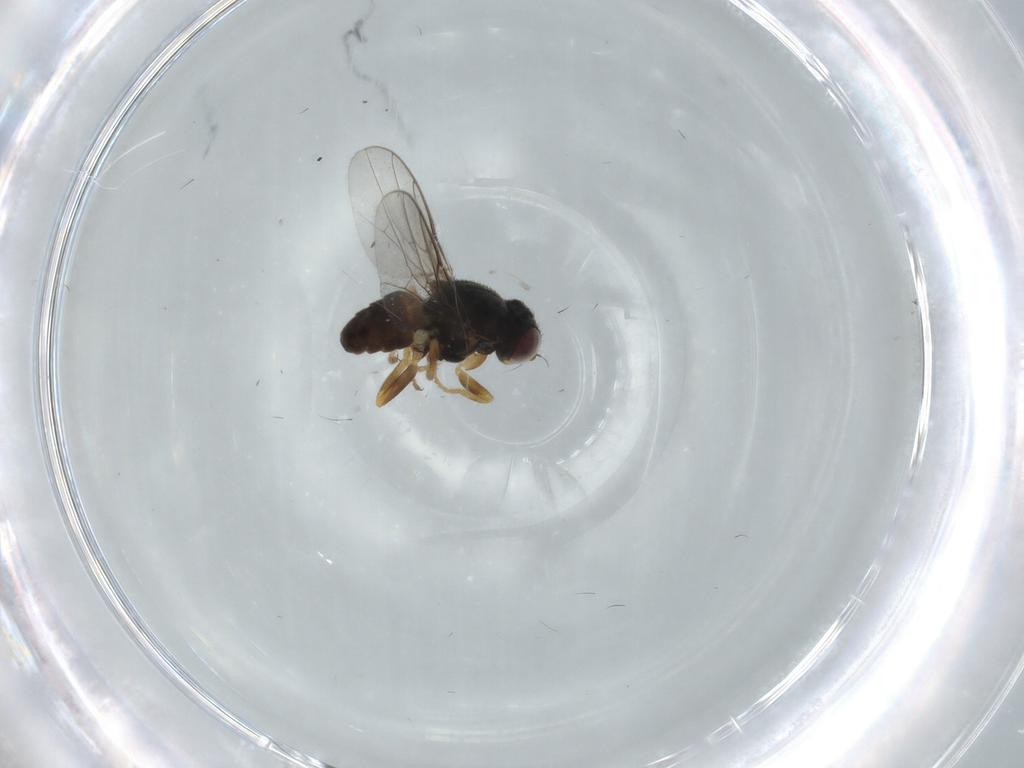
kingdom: Animalia
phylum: Arthropoda
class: Insecta
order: Diptera
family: Chloropidae
